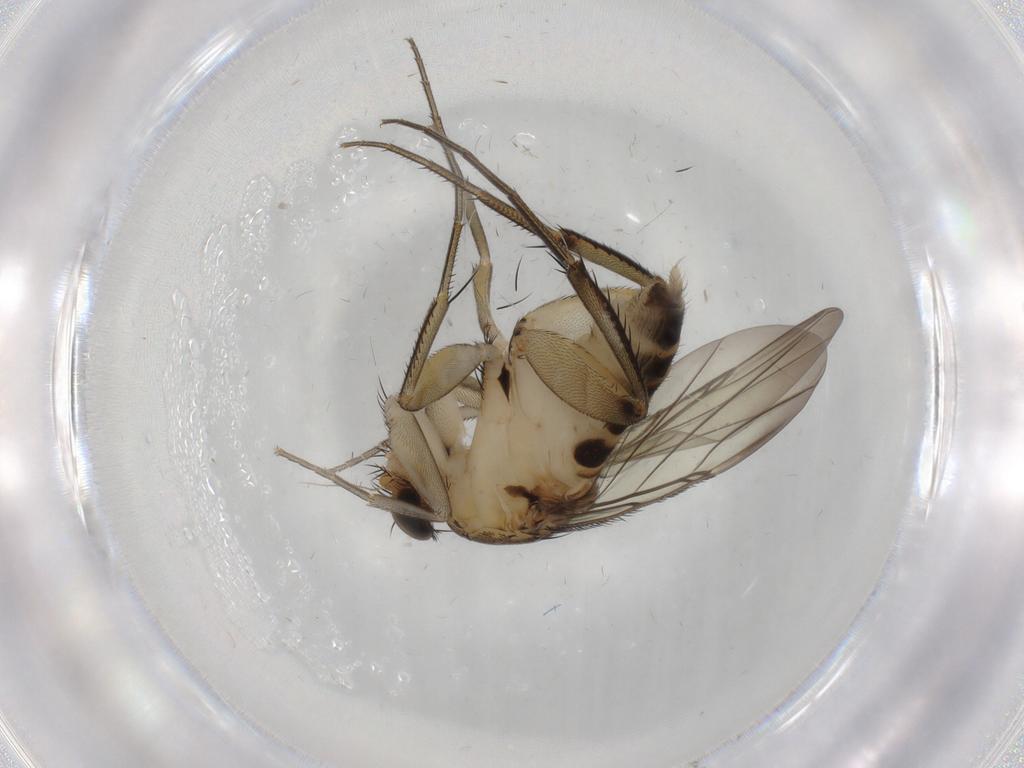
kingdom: Animalia
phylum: Arthropoda
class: Insecta
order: Diptera
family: Phoridae
